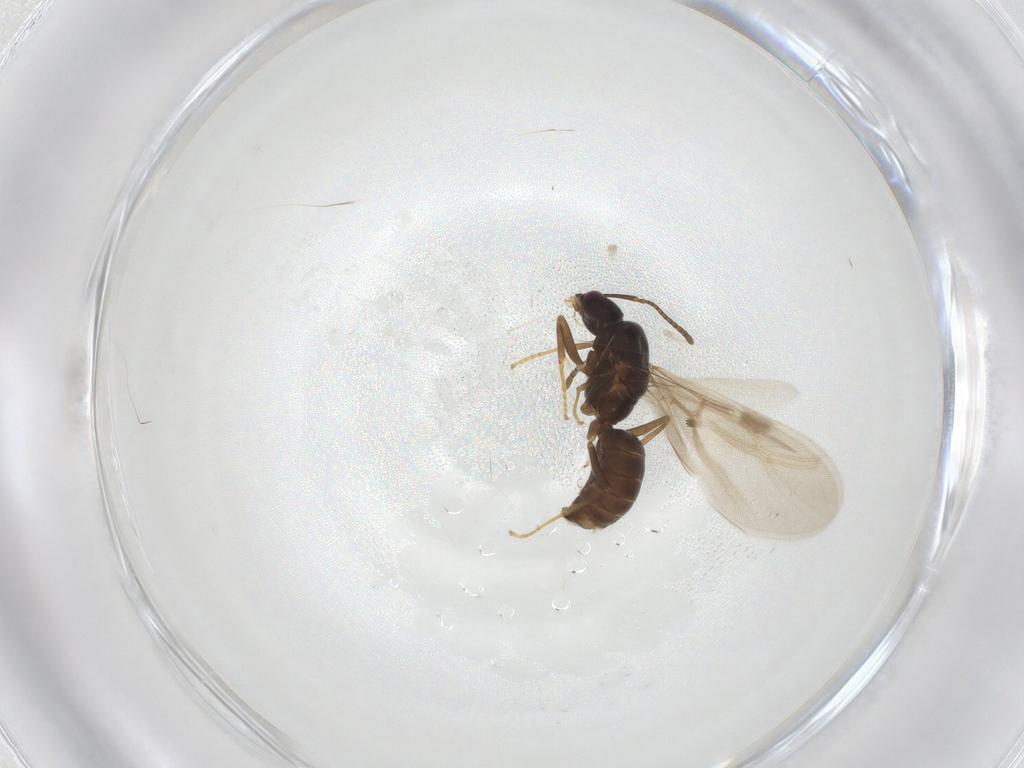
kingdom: Animalia
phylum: Arthropoda
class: Insecta
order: Hymenoptera
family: Formicidae
